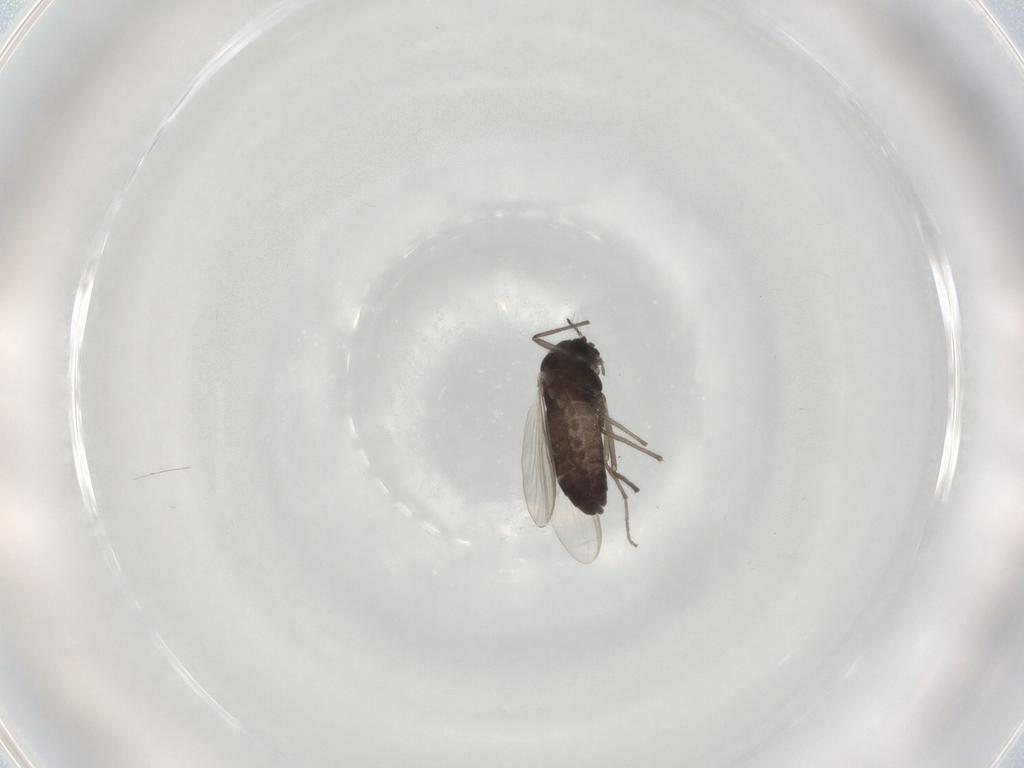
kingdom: Animalia
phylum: Arthropoda
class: Insecta
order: Diptera
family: Chironomidae
